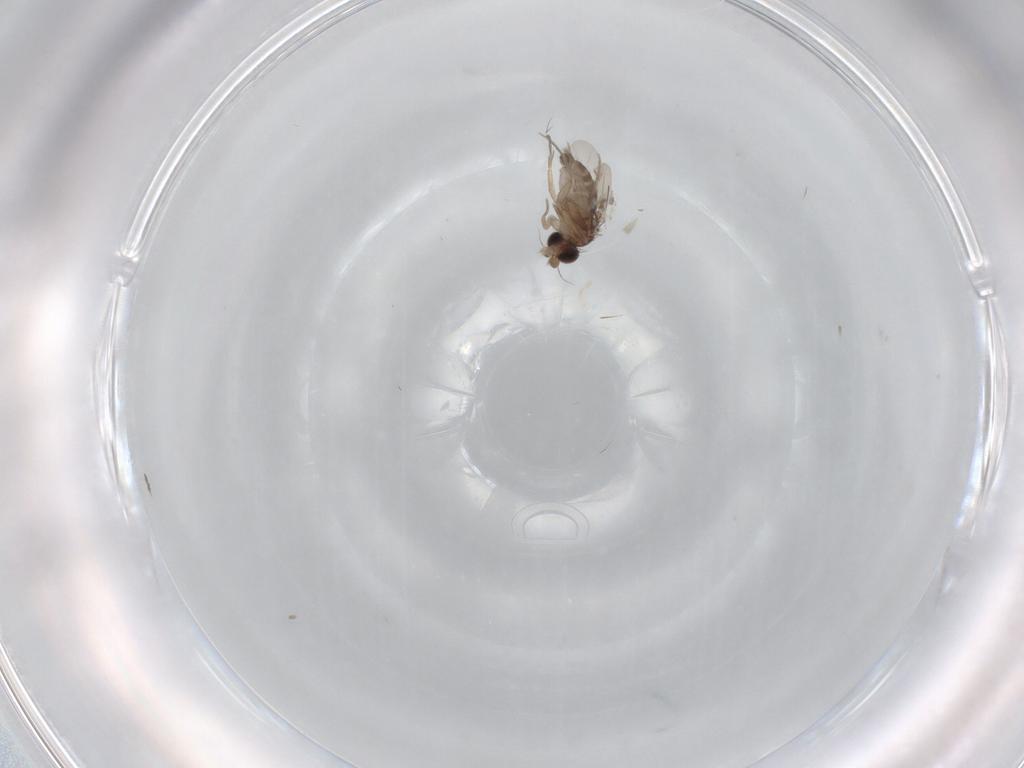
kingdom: Animalia
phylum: Arthropoda
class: Insecta
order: Diptera
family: Phoridae
